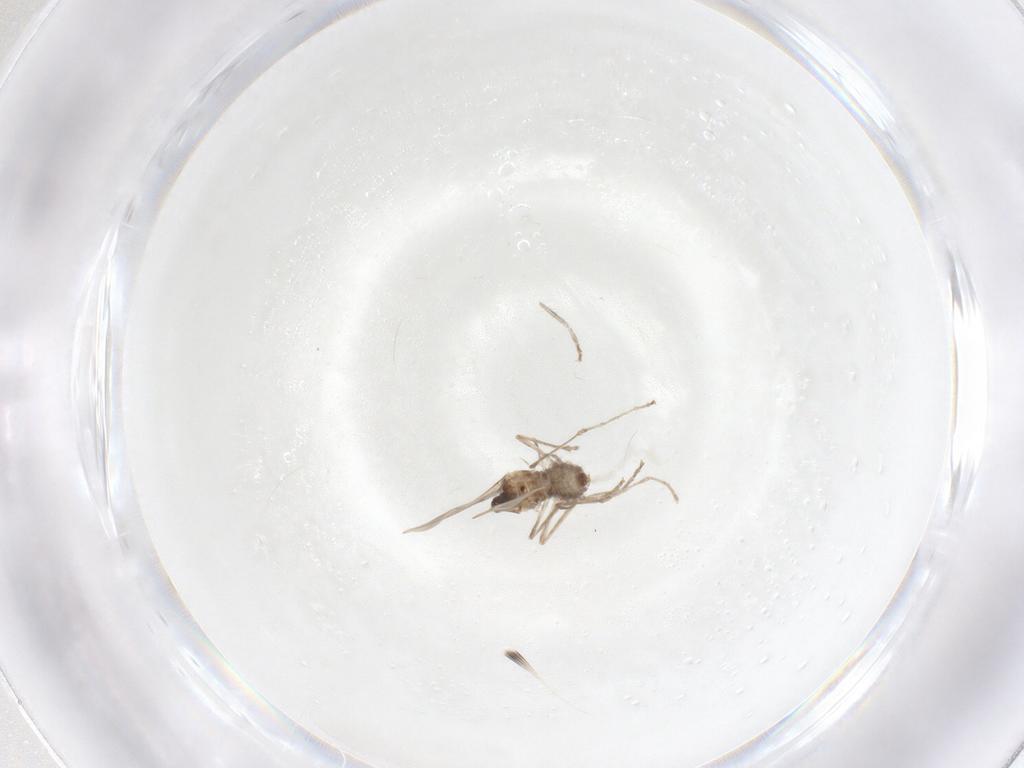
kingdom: Animalia
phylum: Arthropoda
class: Insecta
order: Diptera
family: Cecidomyiidae
